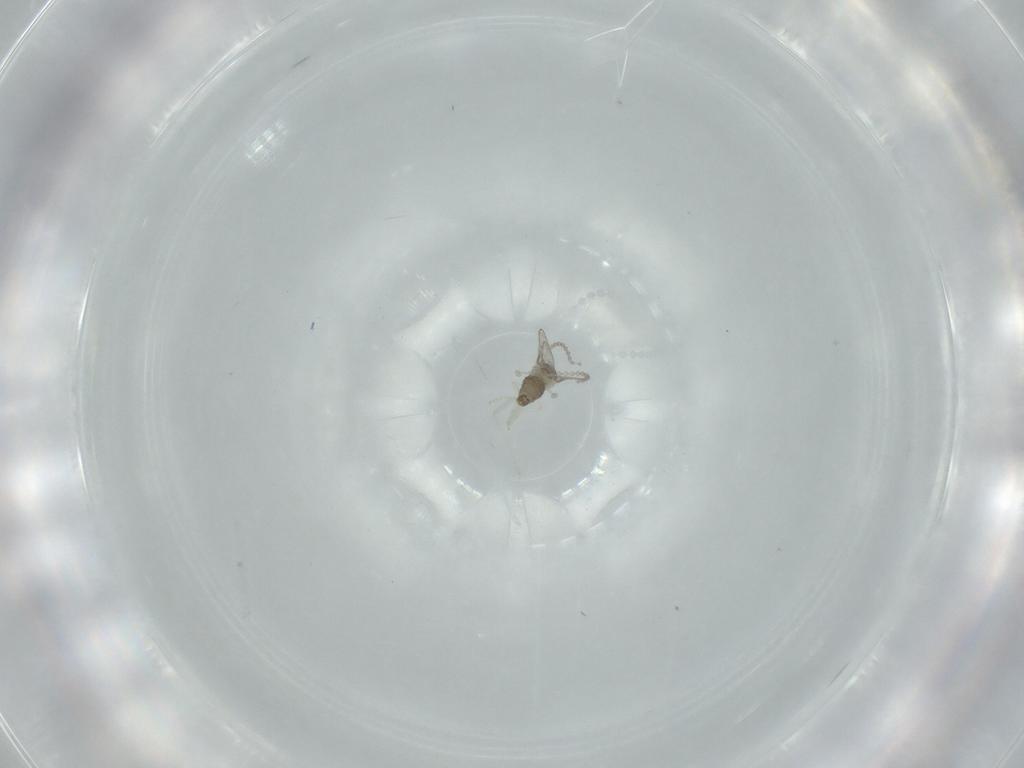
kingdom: Animalia
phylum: Arthropoda
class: Insecta
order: Diptera
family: Cecidomyiidae
